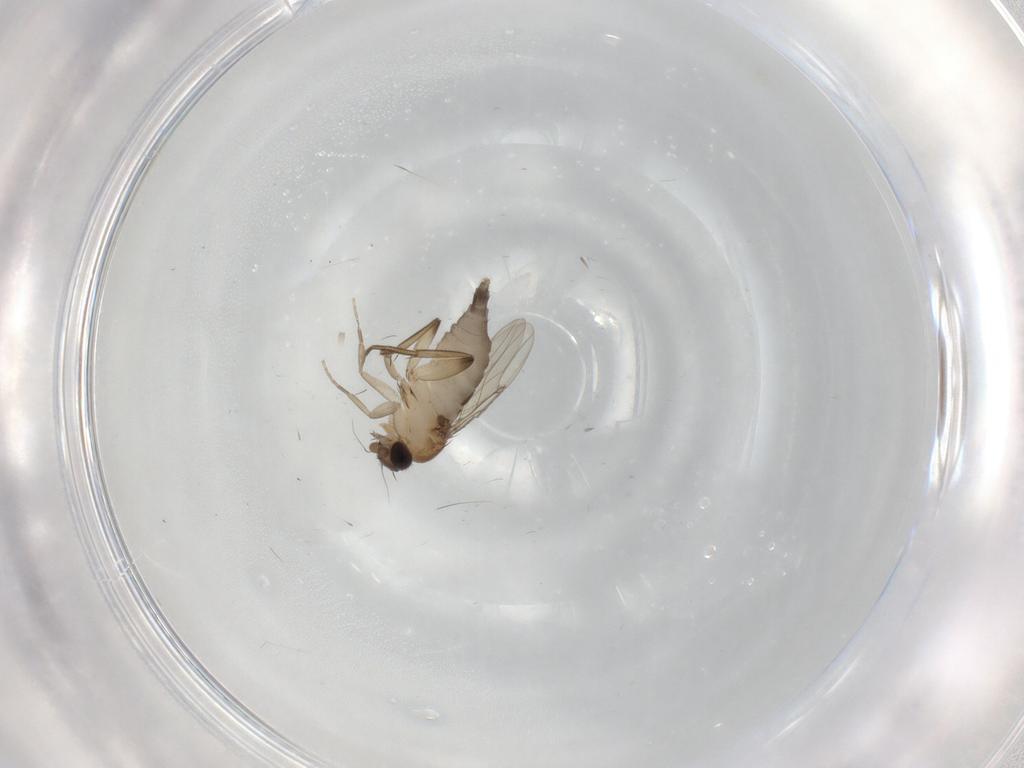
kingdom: Animalia
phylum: Arthropoda
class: Insecta
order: Diptera
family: Phoridae
